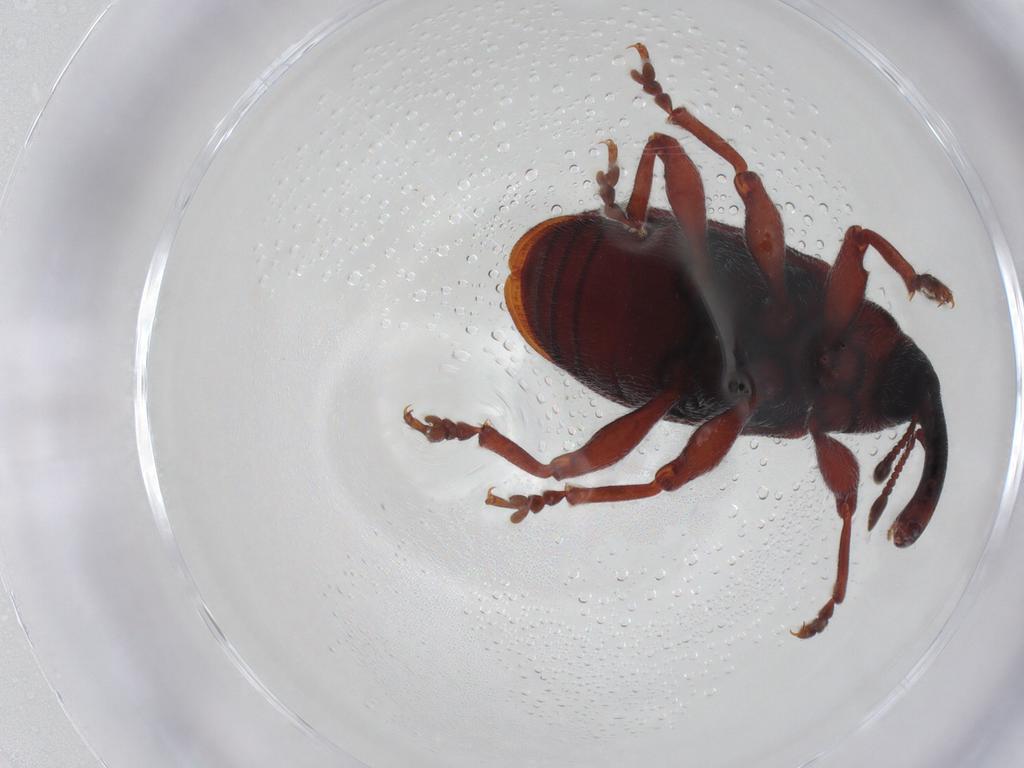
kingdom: Animalia
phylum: Arthropoda
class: Insecta
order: Coleoptera
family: Curculionidae
